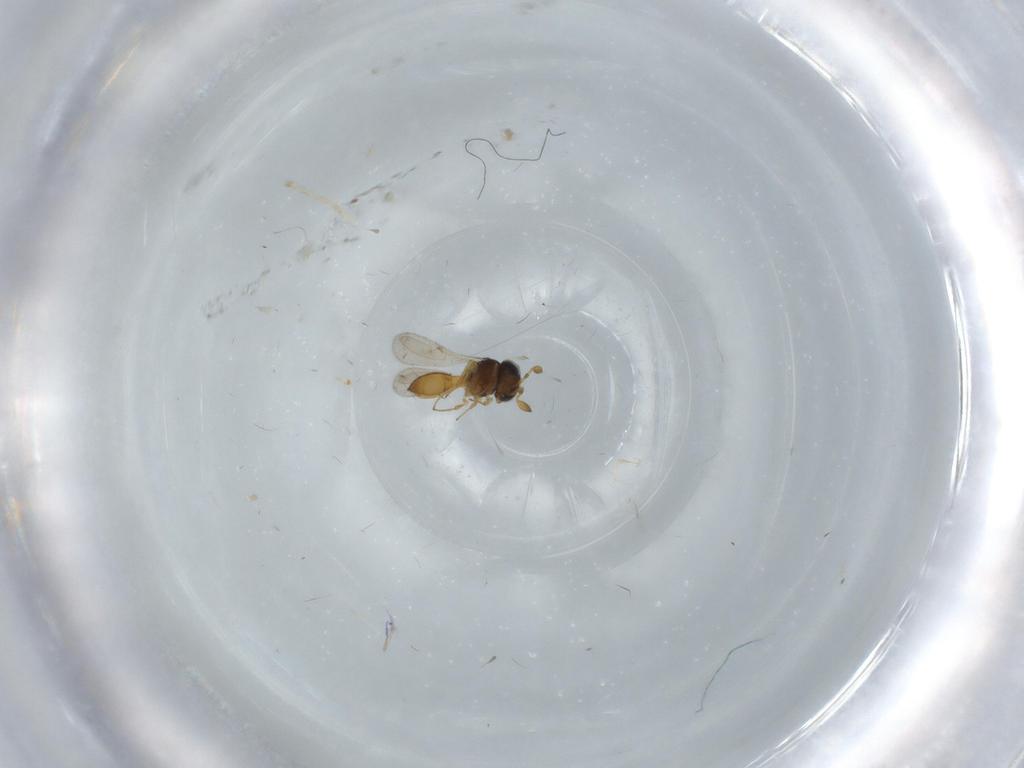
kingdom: Animalia
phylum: Arthropoda
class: Insecta
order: Hymenoptera
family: Scelionidae
